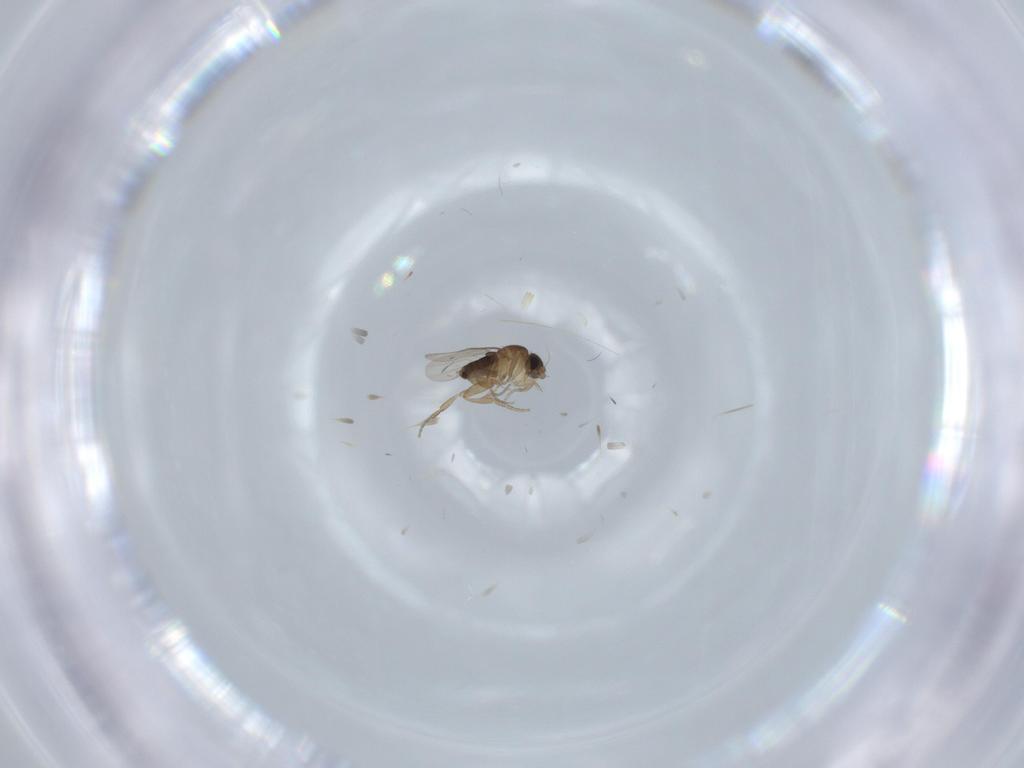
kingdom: Animalia
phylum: Arthropoda
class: Insecta
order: Diptera
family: Phoridae
